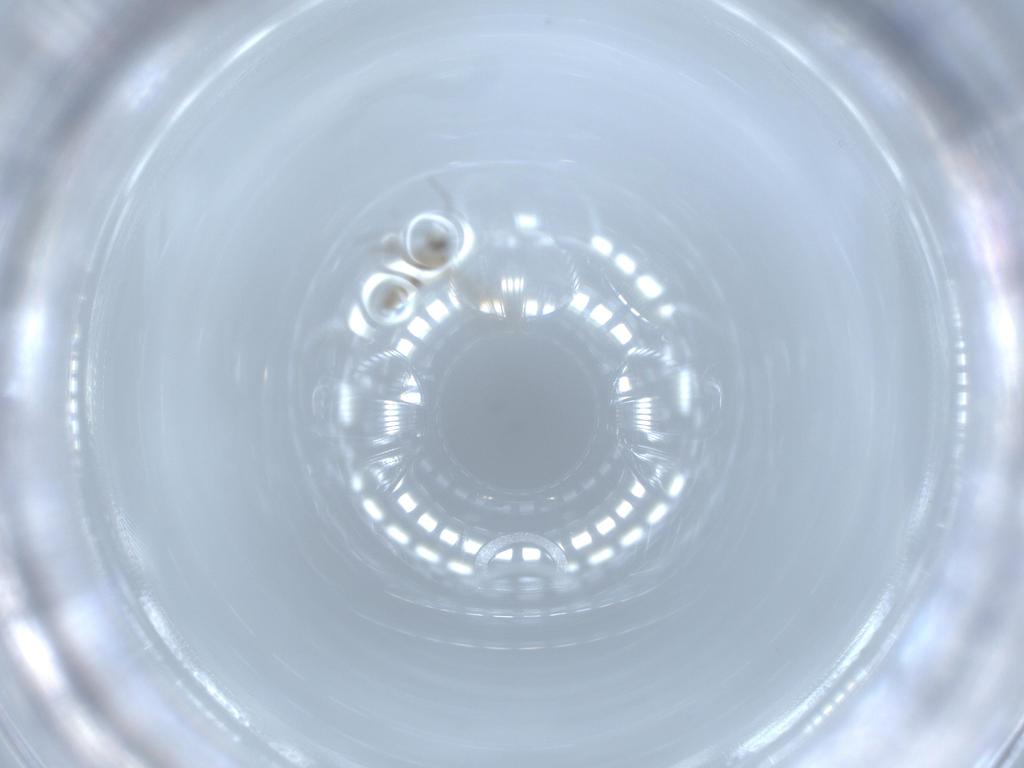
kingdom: Animalia
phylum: Arthropoda
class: Insecta
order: Diptera
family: Cecidomyiidae
